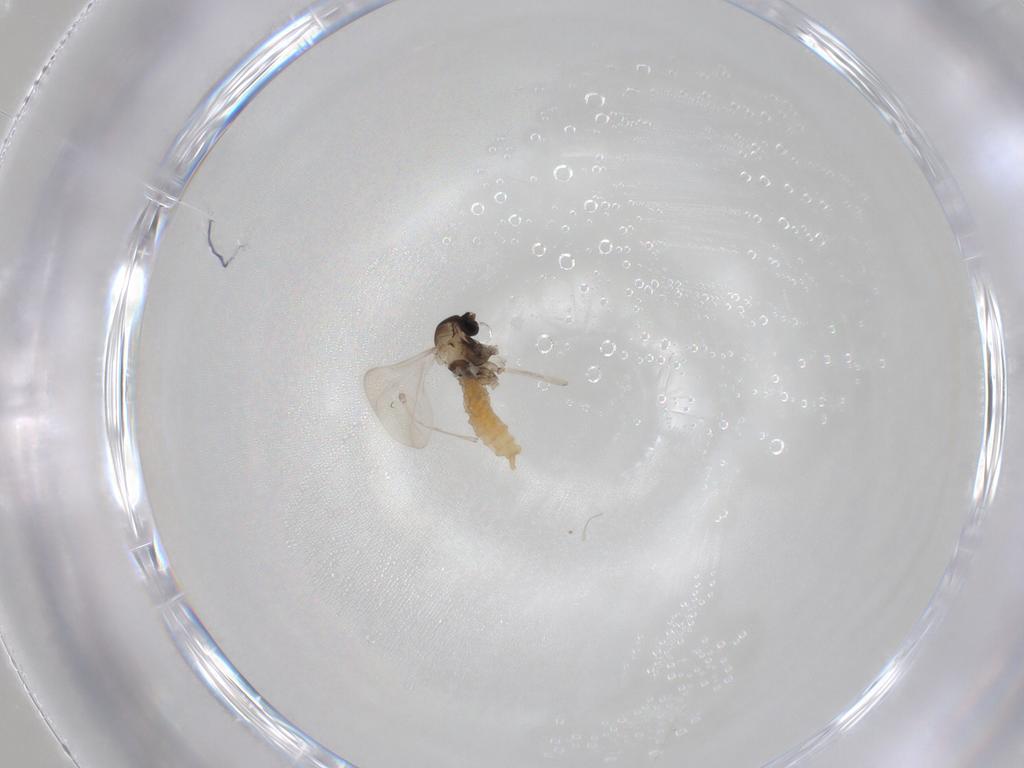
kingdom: Animalia
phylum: Arthropoda
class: Insecta
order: Diptera
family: Cecidomyiidae
